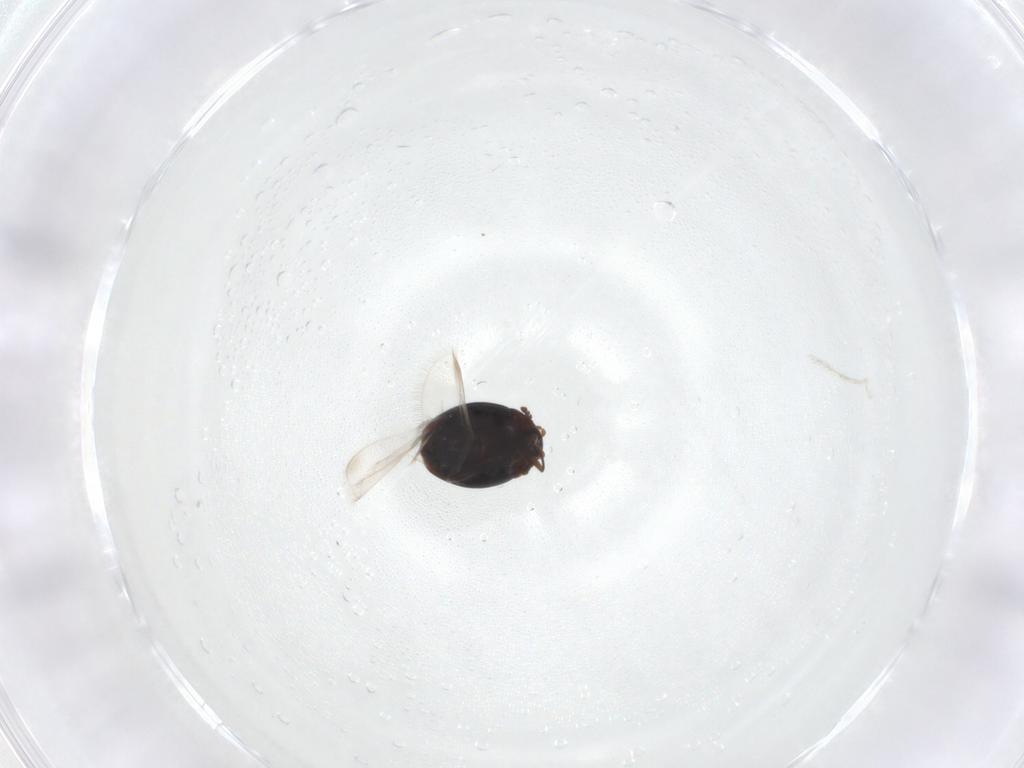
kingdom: Animalia
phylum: Arthropoda
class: Insecta
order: Coleoptera
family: Corylophidae
